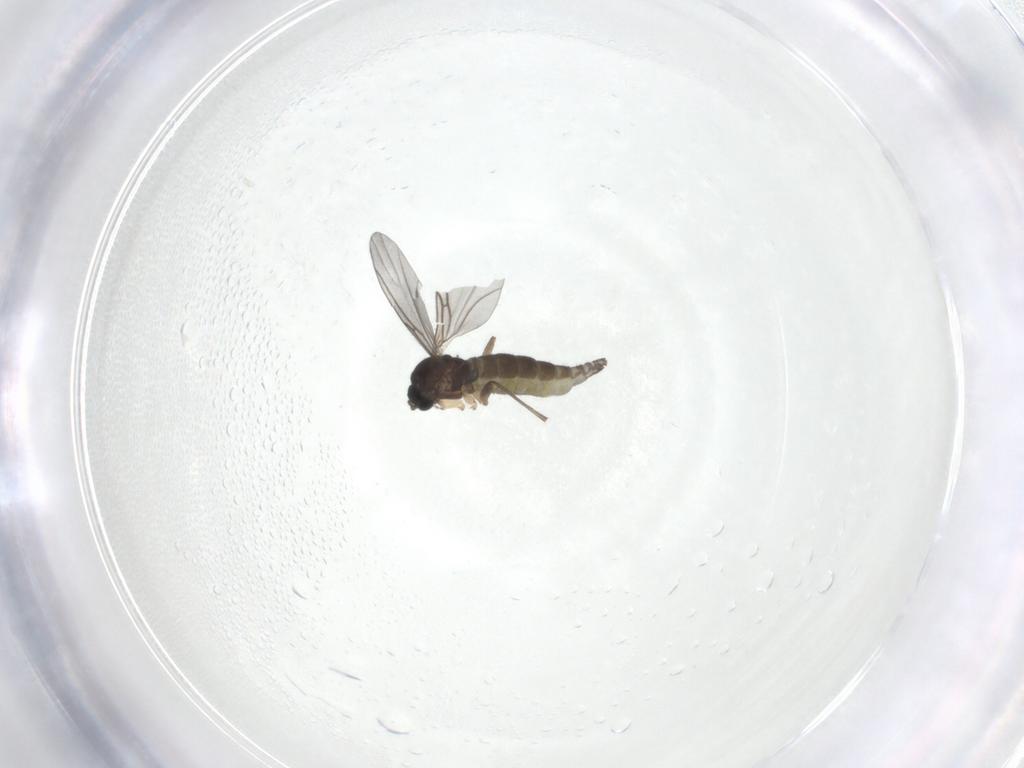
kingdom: Animalia
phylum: Arthropoda
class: Insecta
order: Diptera
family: Sciaridae
